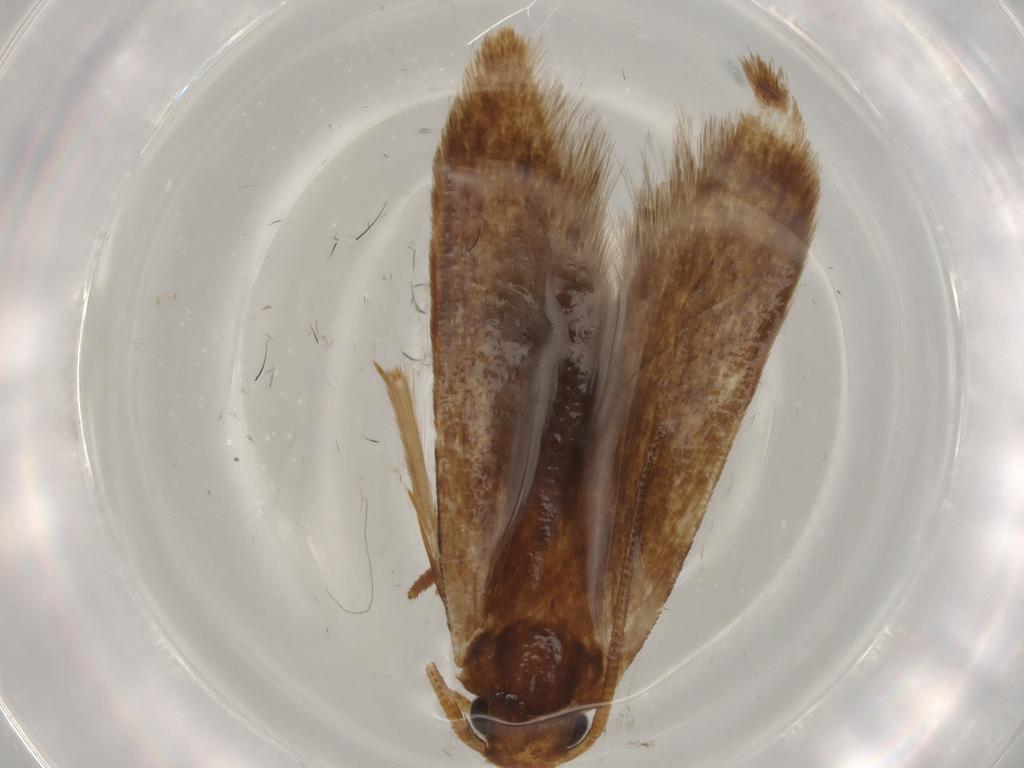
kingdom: Animalia
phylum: Arthropoda
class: Insecta
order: Lepidoptera
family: Tineidae
